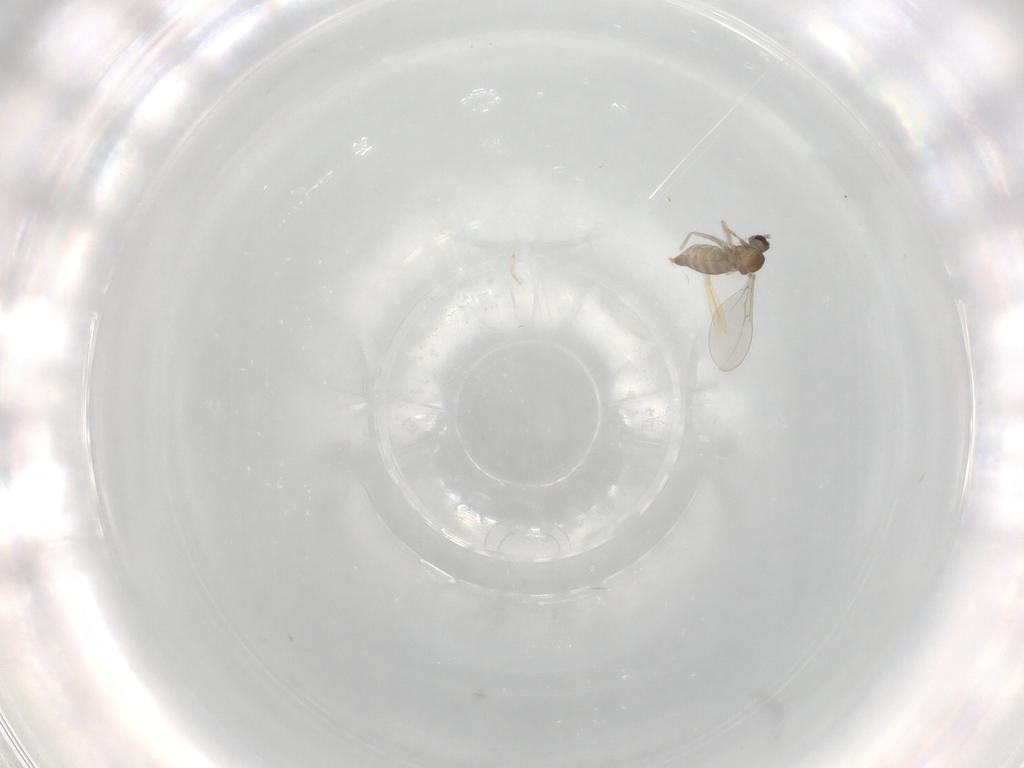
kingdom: Animalia
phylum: Arthropoda
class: Insecta
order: Diptera
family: Cecidomyiidae
